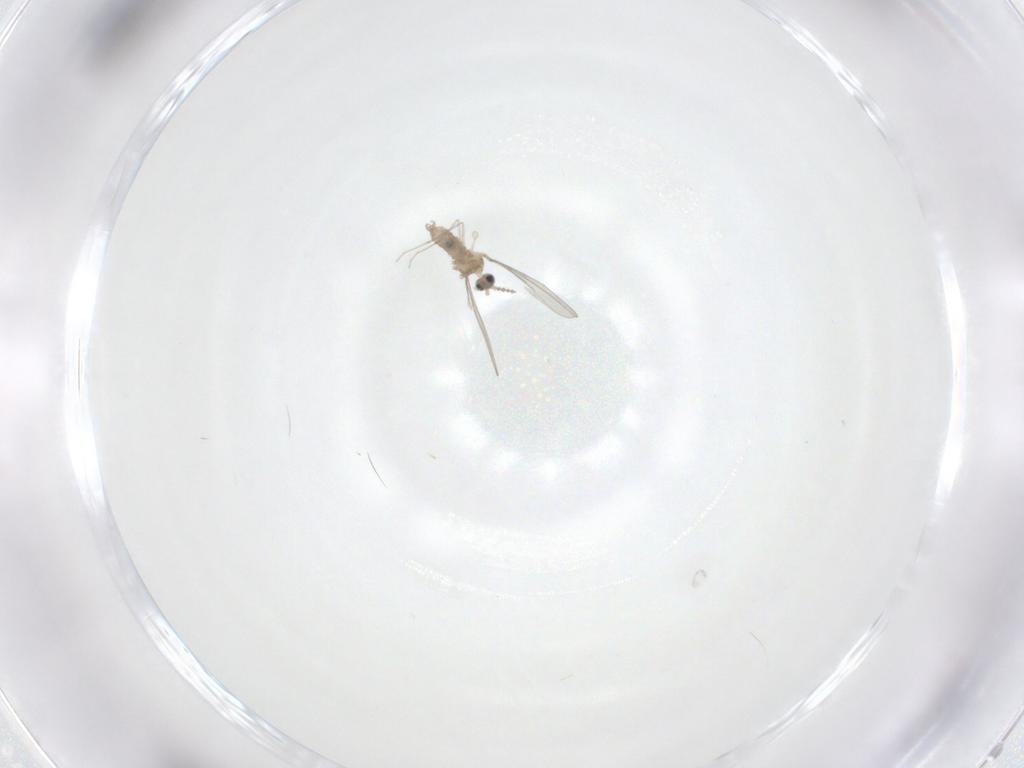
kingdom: Animalia
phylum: Arthropoda
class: Insecta
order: Diptera
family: Cecidomyiidae
